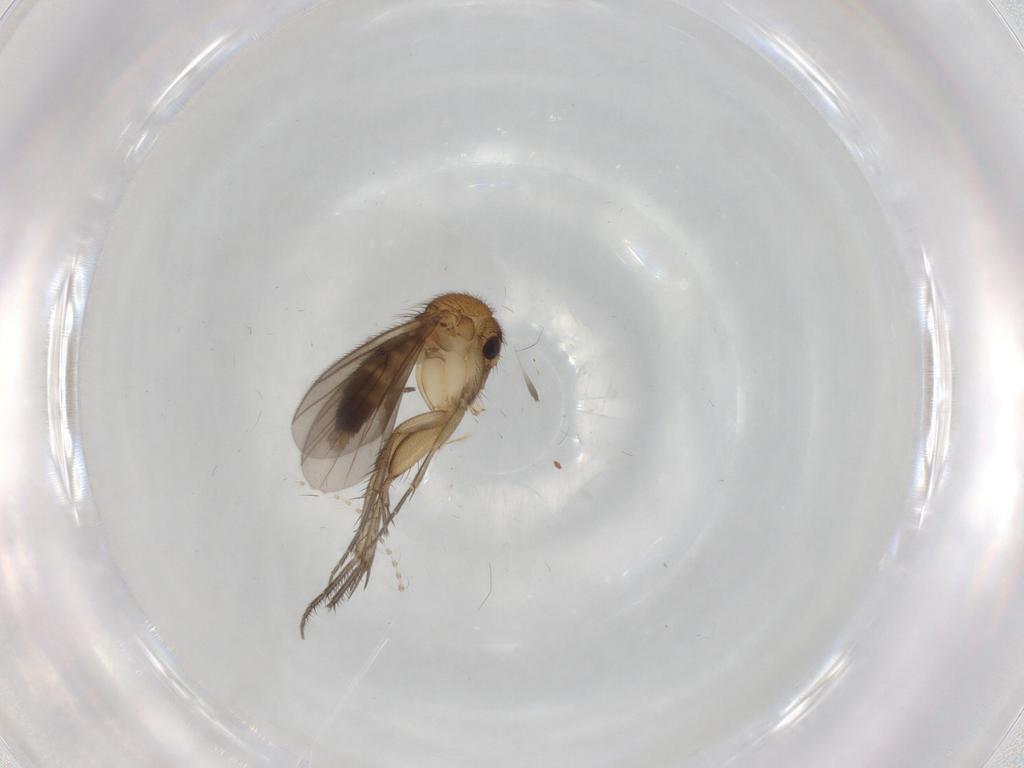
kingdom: Animalia
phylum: Arthropoda
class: Insecta
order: Diptera
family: Mycetophilidae
